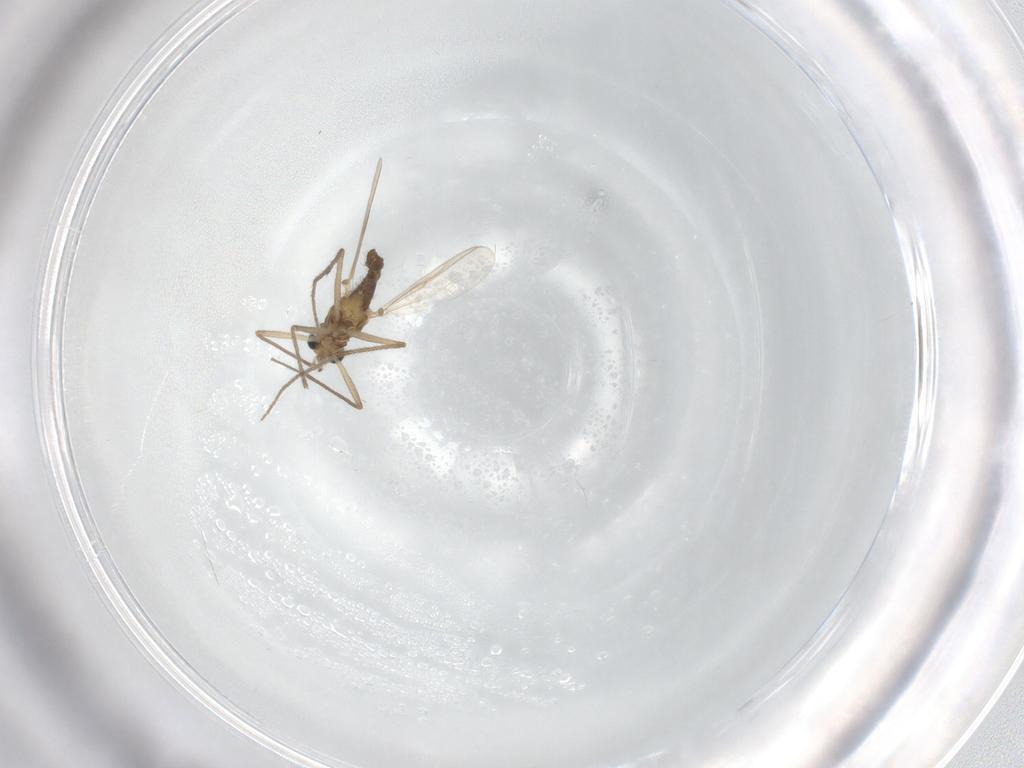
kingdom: Animalia
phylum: Arthropoda
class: Insecta
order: Diptera
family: Chironomidae
